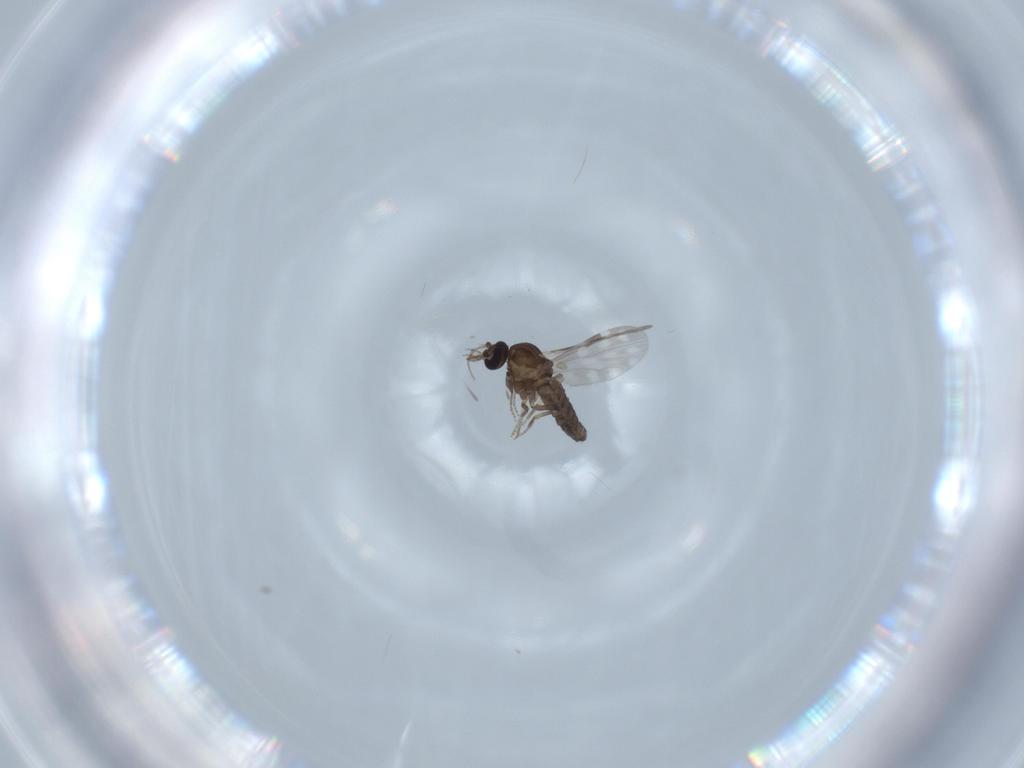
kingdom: Animalia
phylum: Arthropoda
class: Insecta
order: Diptera
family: Ceratopogonidae
